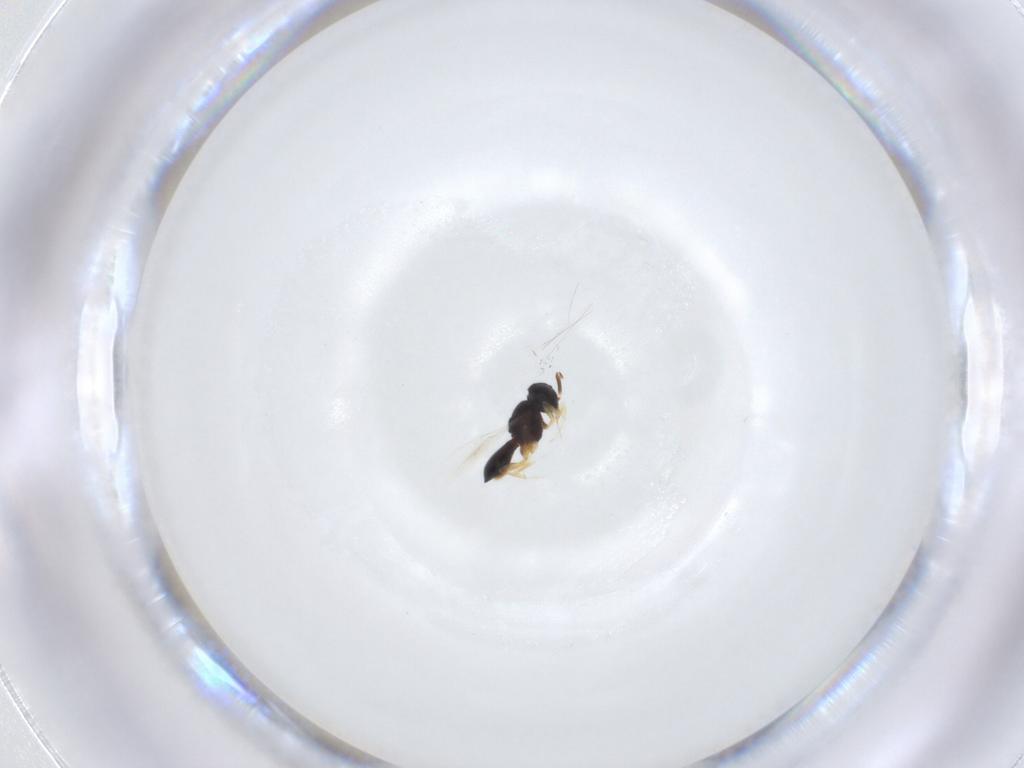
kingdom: Animalia
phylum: Arthropoda
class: Insecta
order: Hymenoptera
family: Scelionidae
